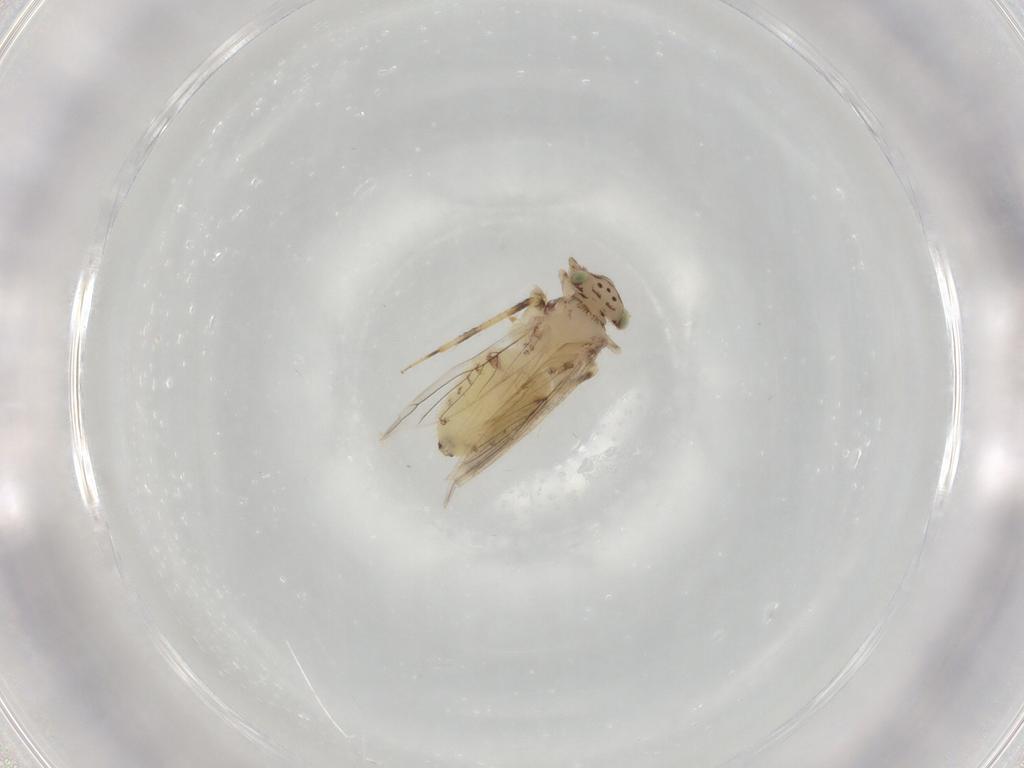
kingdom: Animalia
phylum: Arthropoda
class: Insecta
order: Psocodea
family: Lepidopsocidae
